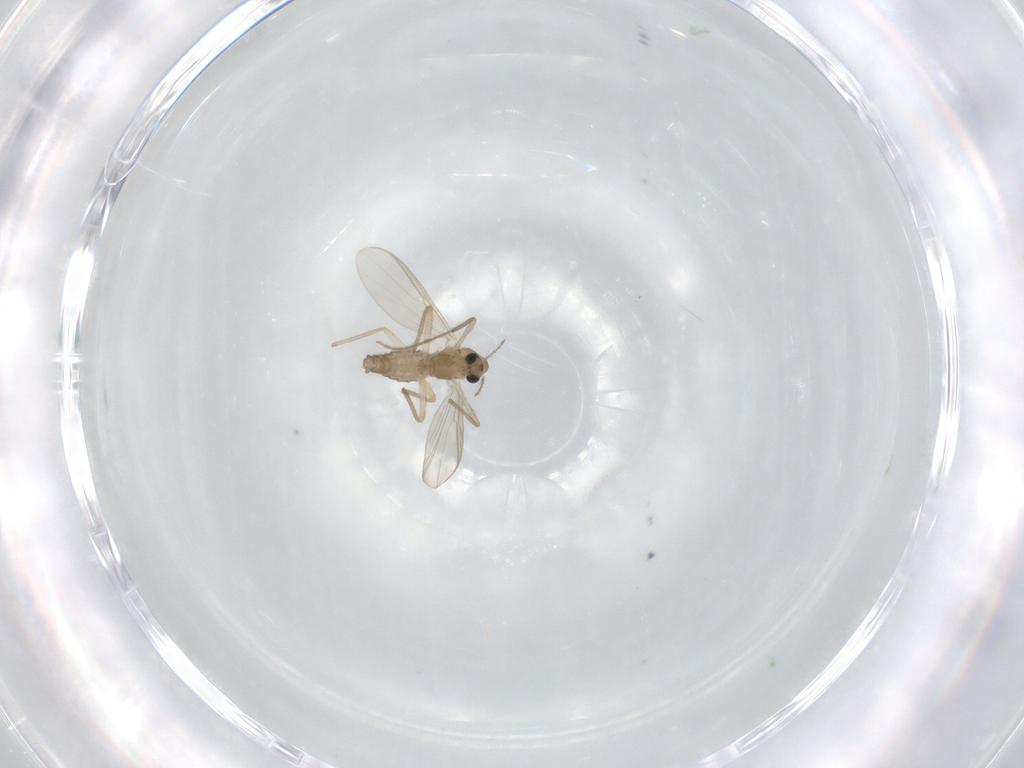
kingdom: Animalia
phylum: Arthropoda
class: Insecta
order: Diptera
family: Chironomidae
